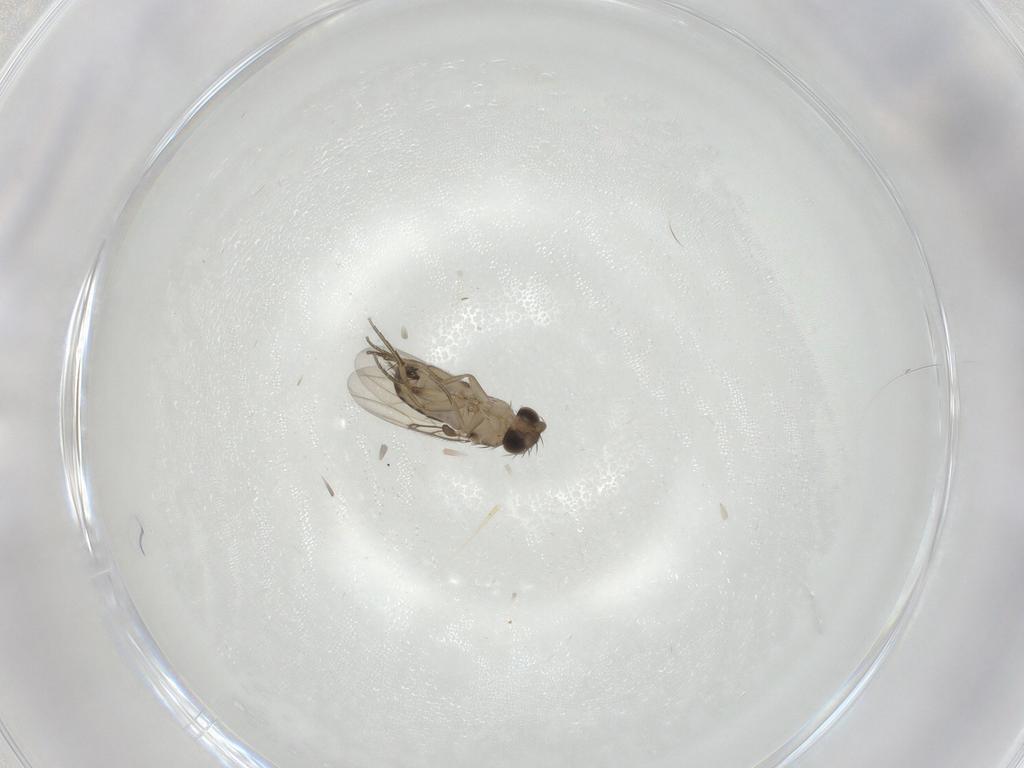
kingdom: Animalia
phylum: Arthropoda
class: Insecta
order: Diptera
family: Phoridae
